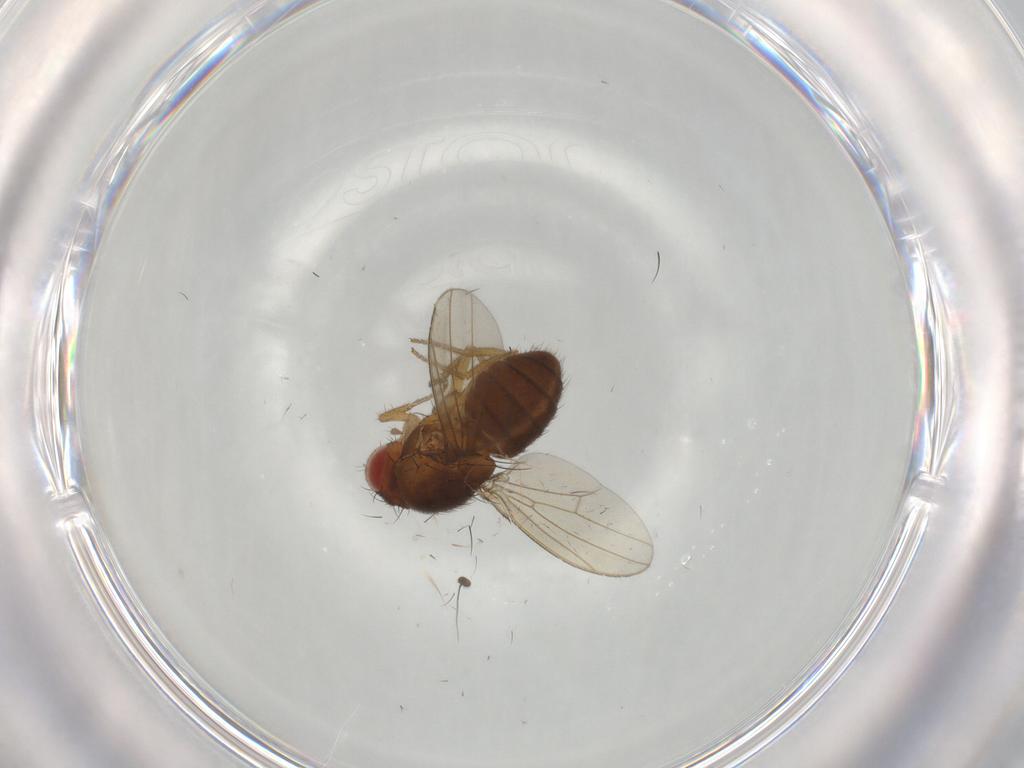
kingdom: Animalia
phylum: Arthropoda
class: Insecta
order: Diptera
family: Drosophilidae
